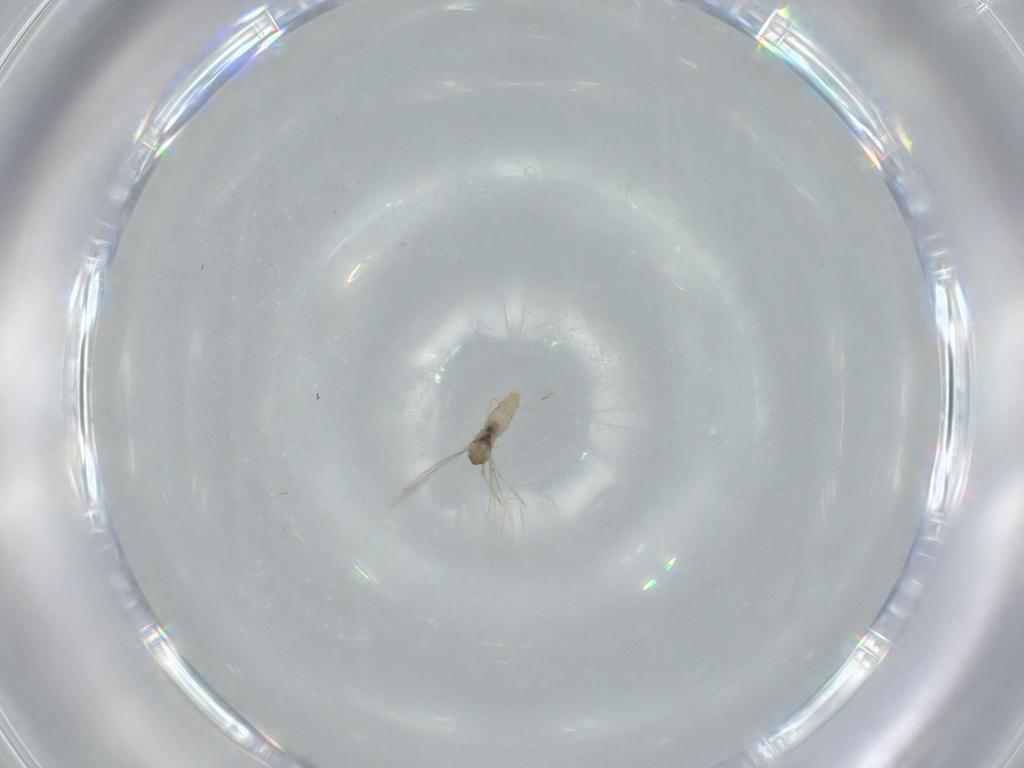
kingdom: Animalia
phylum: Arthropoda
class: Insecta
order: Diptera
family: Cecidomyiidae
